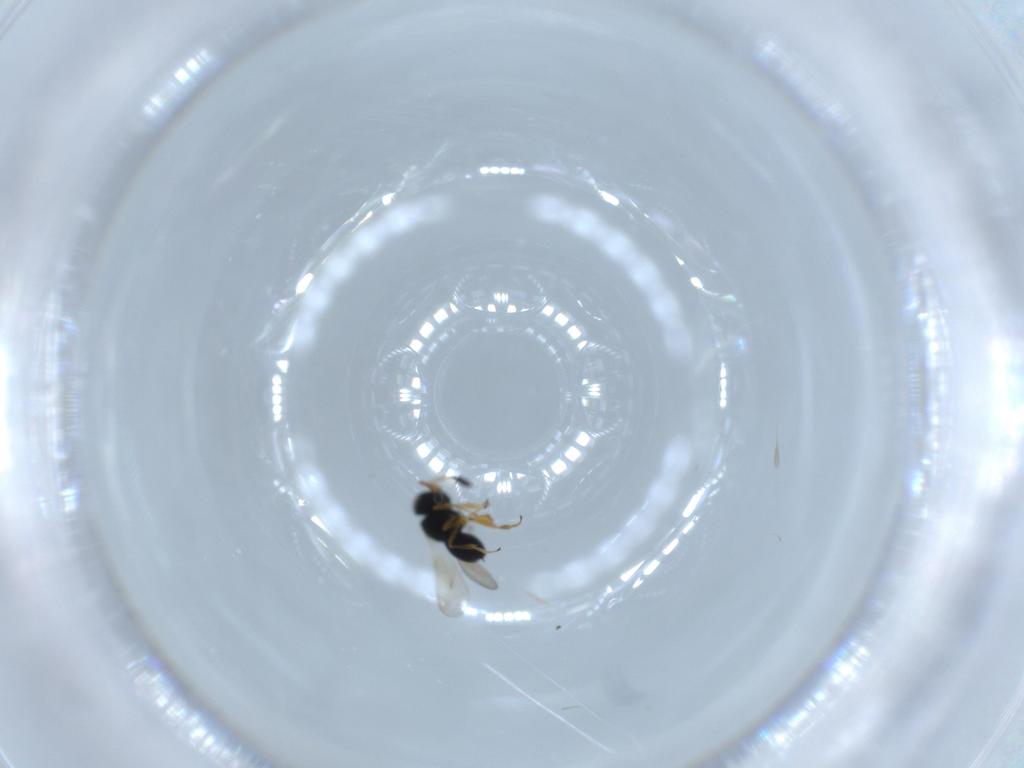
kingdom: Animalia
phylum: Arthropoda
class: Insecta
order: Hymenoptera
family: Scelionidae
